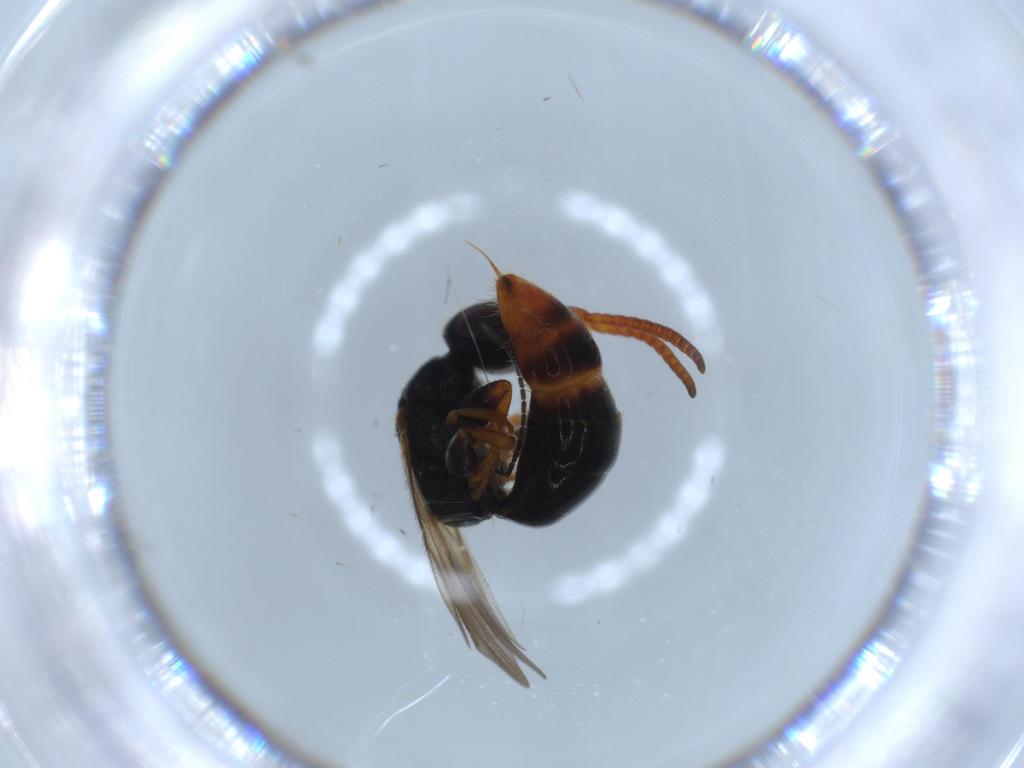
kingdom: Animalia
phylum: Arthropoda
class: Insecta
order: Hymenoptera
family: Bethylidae
